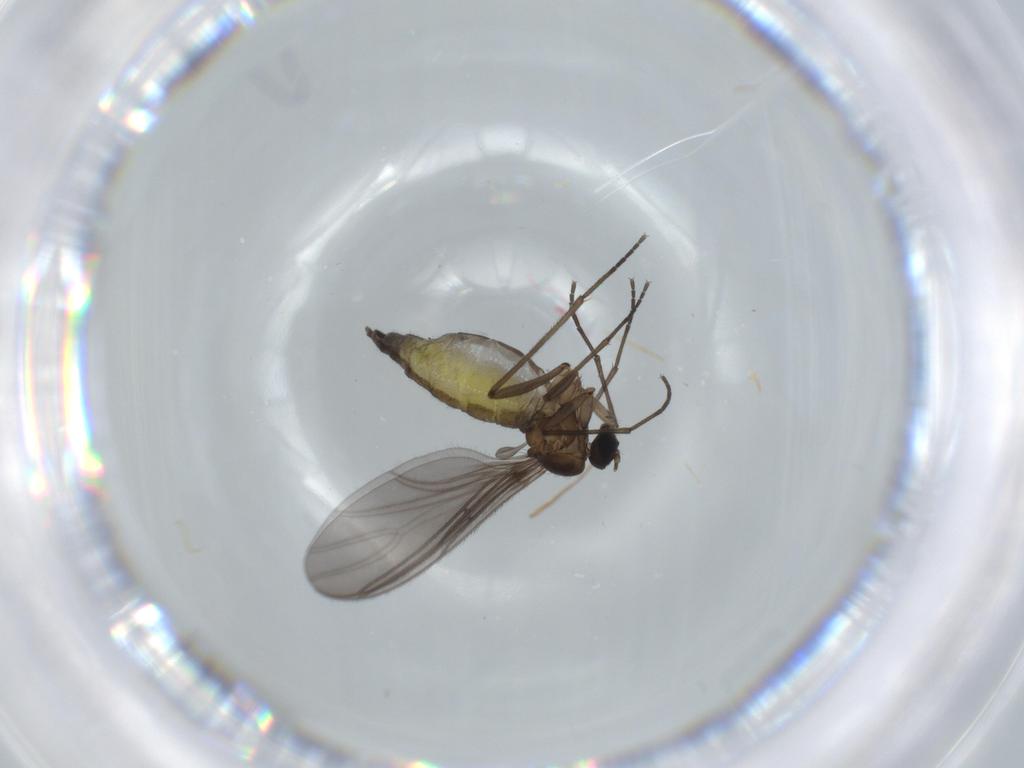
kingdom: Animalia
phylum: Arthropoda
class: Insecta
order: Diptera
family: Sciaridae
